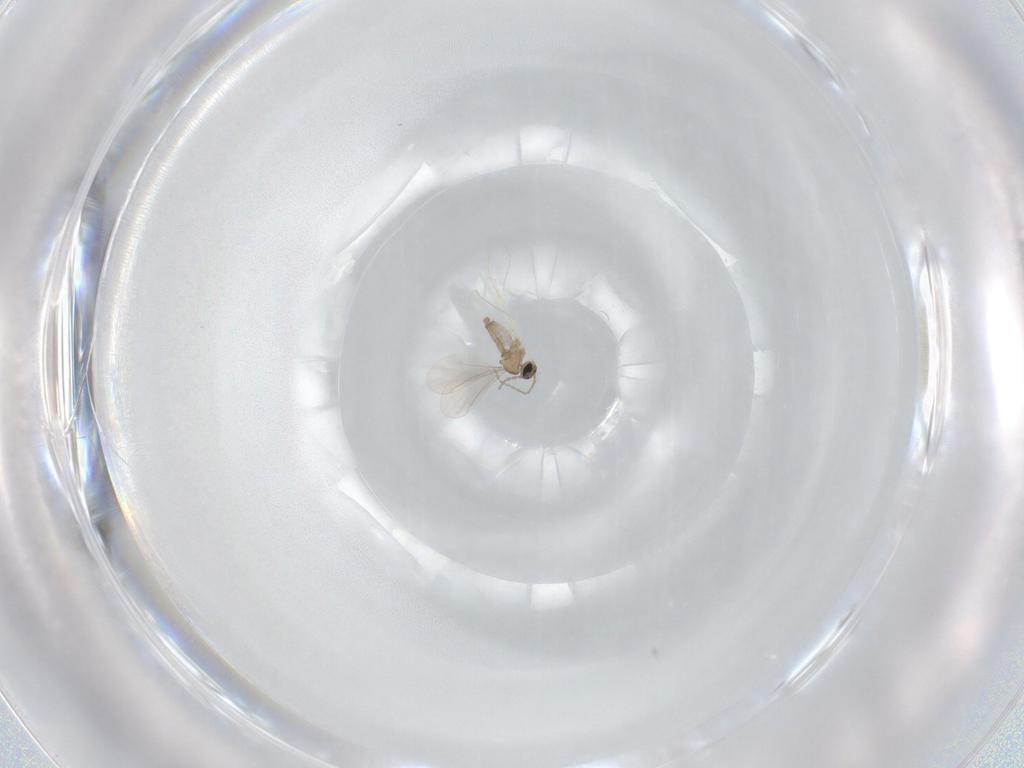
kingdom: Animalia
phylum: Arthropoda
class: Insecta
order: Diptera
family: Cecidomyiidae
